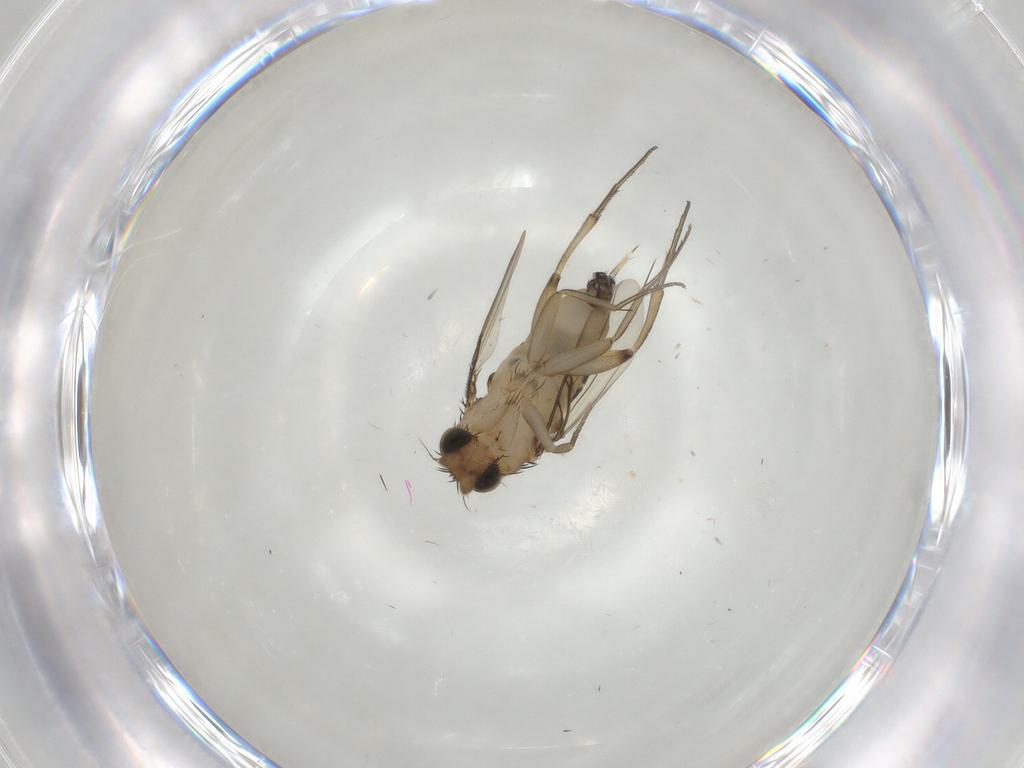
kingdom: Animalia
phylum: Arthropoda
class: Insecta
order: Diptera
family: Phoridae
